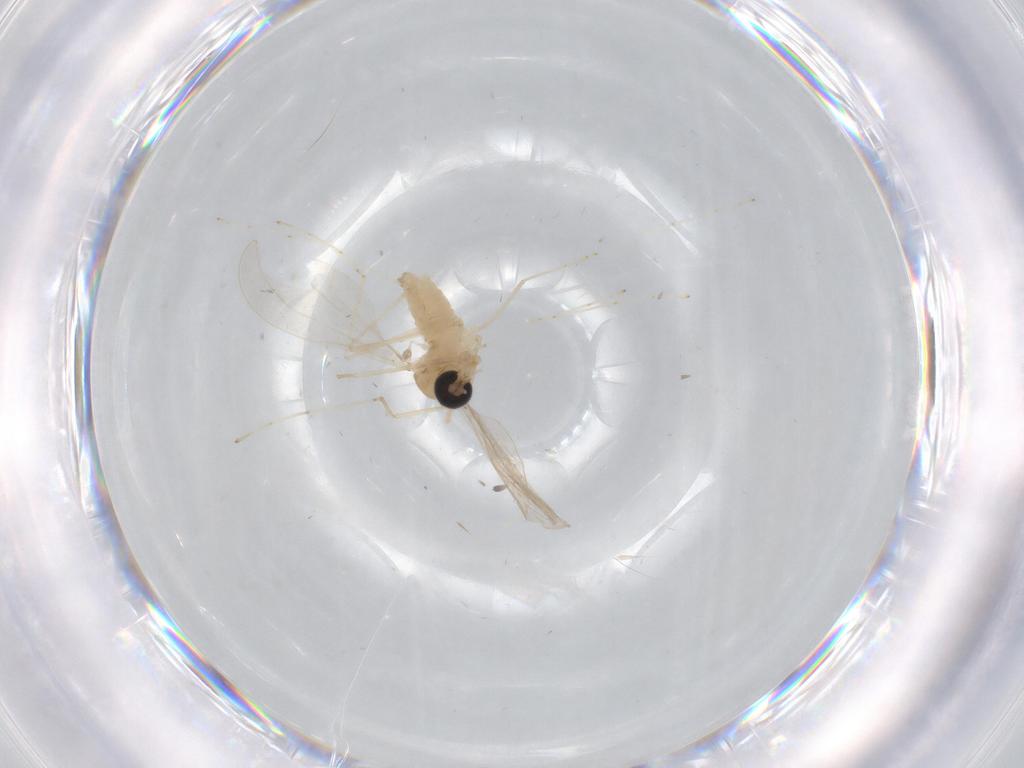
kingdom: Animalia
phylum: Arthropoda
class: Insecta
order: Diptera
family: Cecidomyiidae
